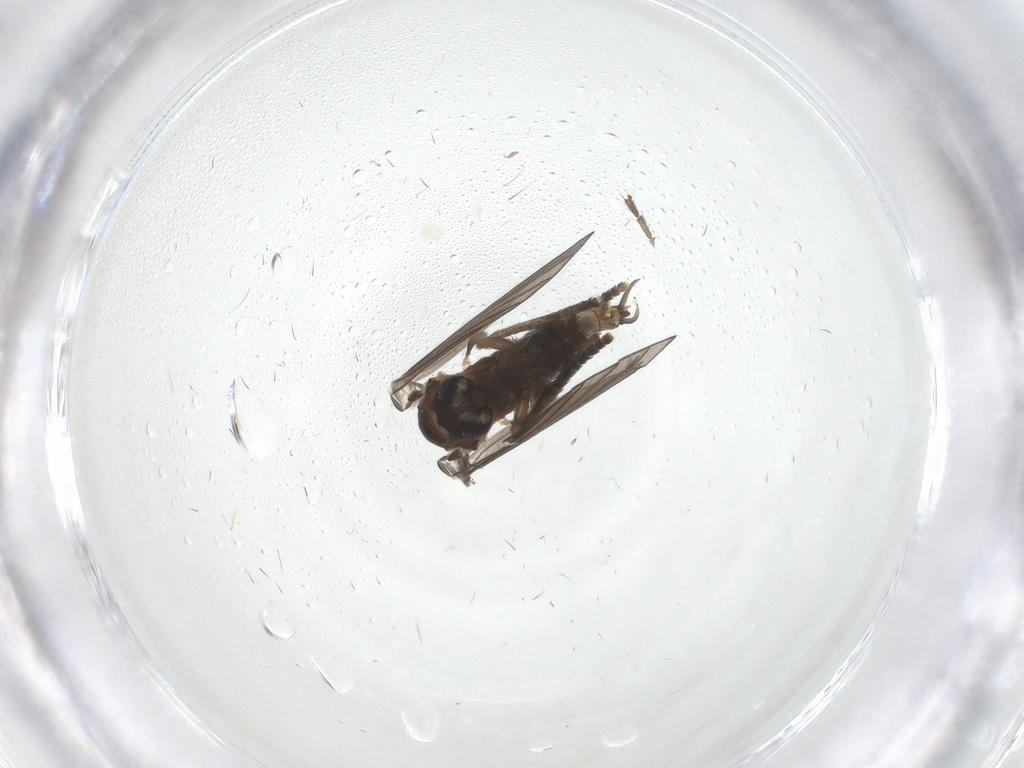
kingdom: Animalia
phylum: Arthropoda
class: Insecta
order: Diptera
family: Psychodidae
